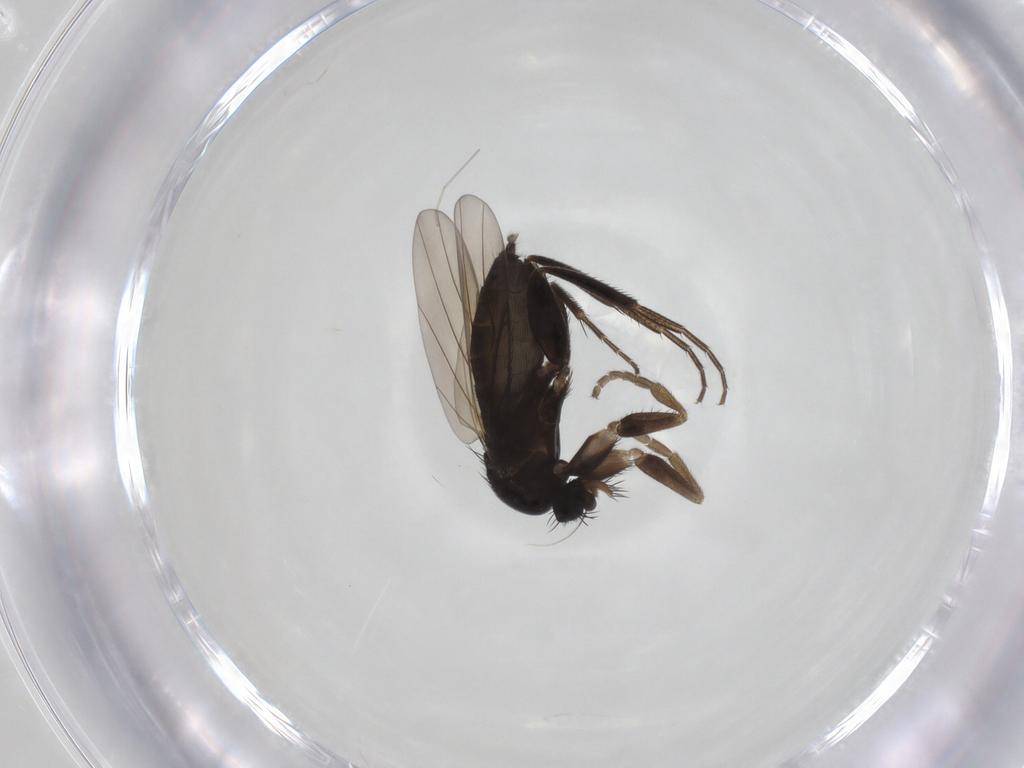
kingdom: Animalia
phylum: Arthropoda
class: Insecta
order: Diptera
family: Phoridae
